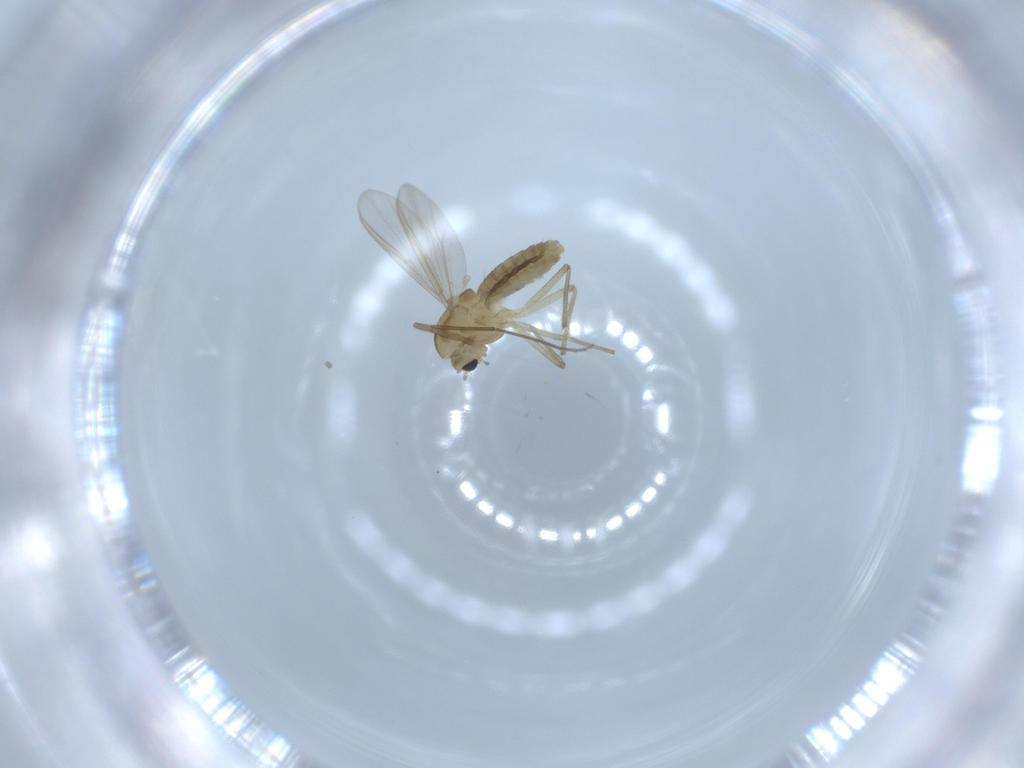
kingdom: Animalia
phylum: Arthropoda
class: Insecta
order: Diptera
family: Chironomidae
